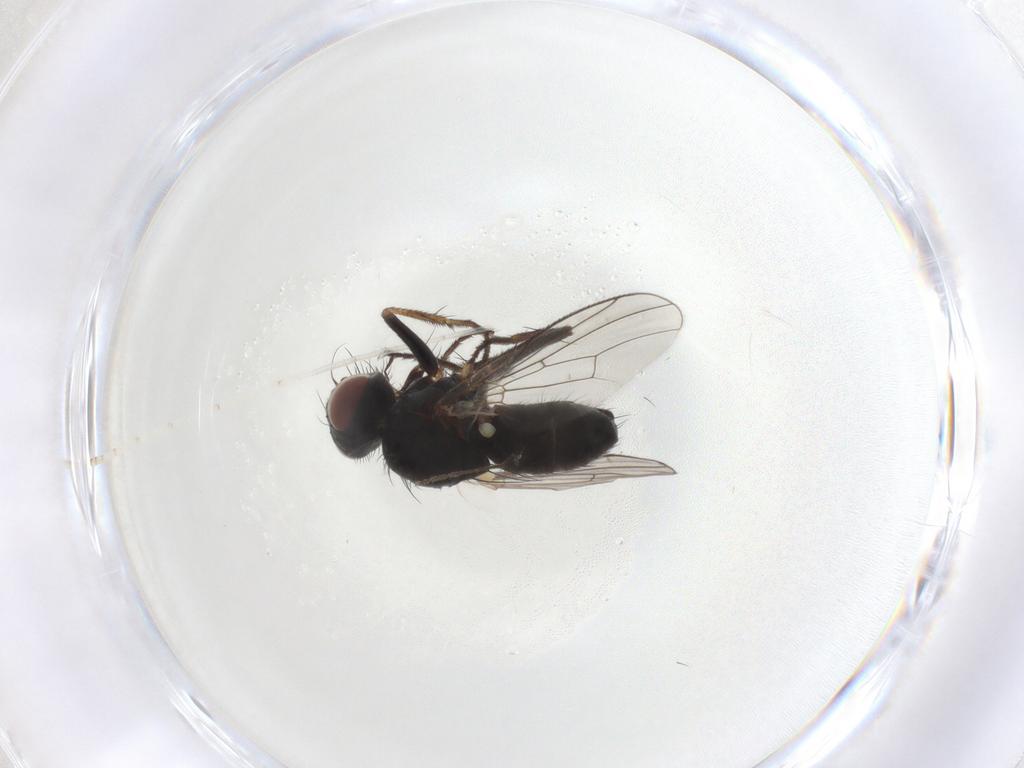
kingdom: Animalia
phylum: Arthropoda
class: Insecta
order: Diptera
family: Muscidae
